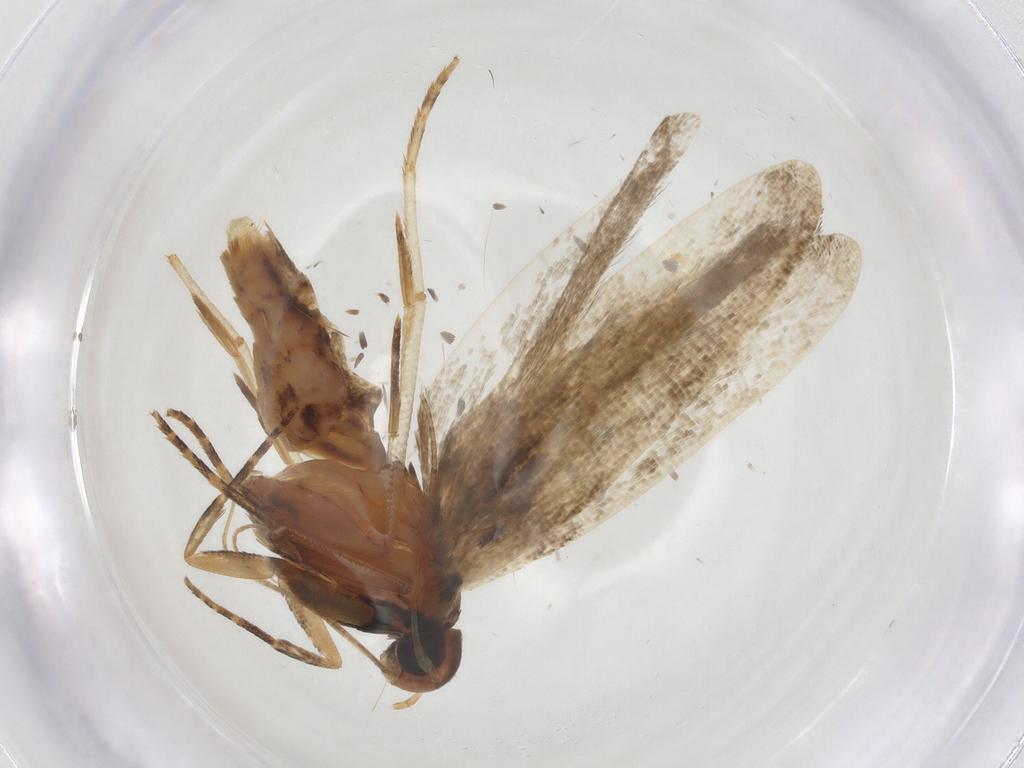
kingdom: Animalia
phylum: Arthropoda
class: Insecta
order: Lepidoptera
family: Gelechiidae
